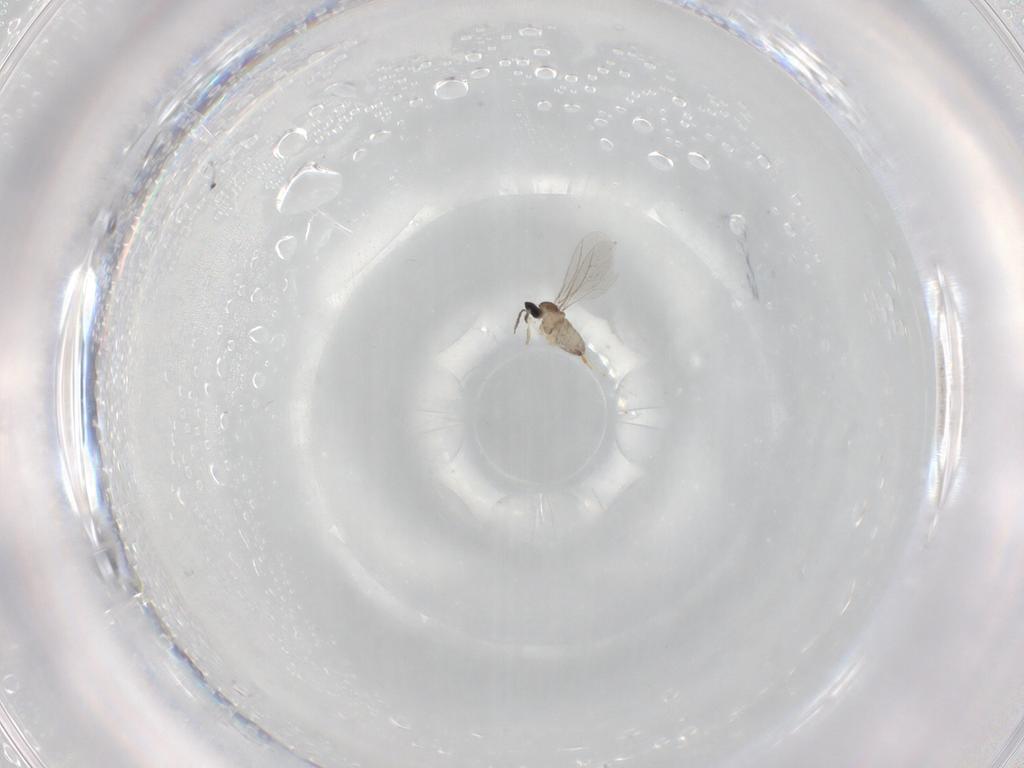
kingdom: Animalia
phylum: Arthropoda
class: Insecta
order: Diptera
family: Cecidomyiidae
